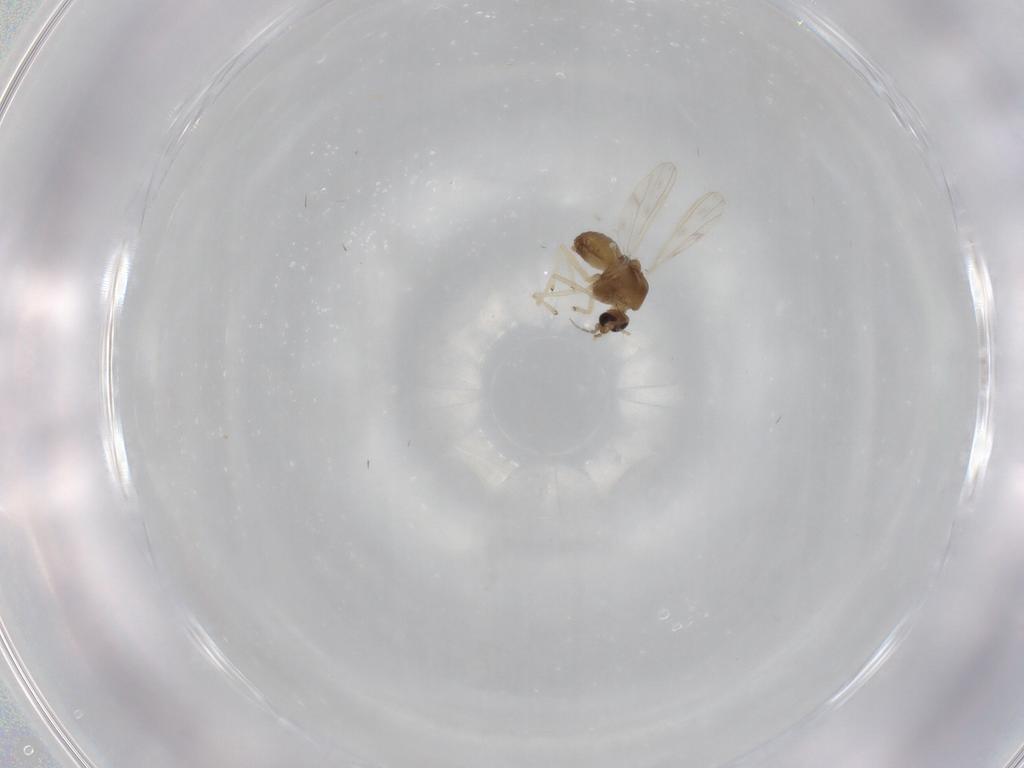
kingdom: Animalia
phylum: Arthropoda
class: Insecta
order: Diptera
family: Chironomidae
